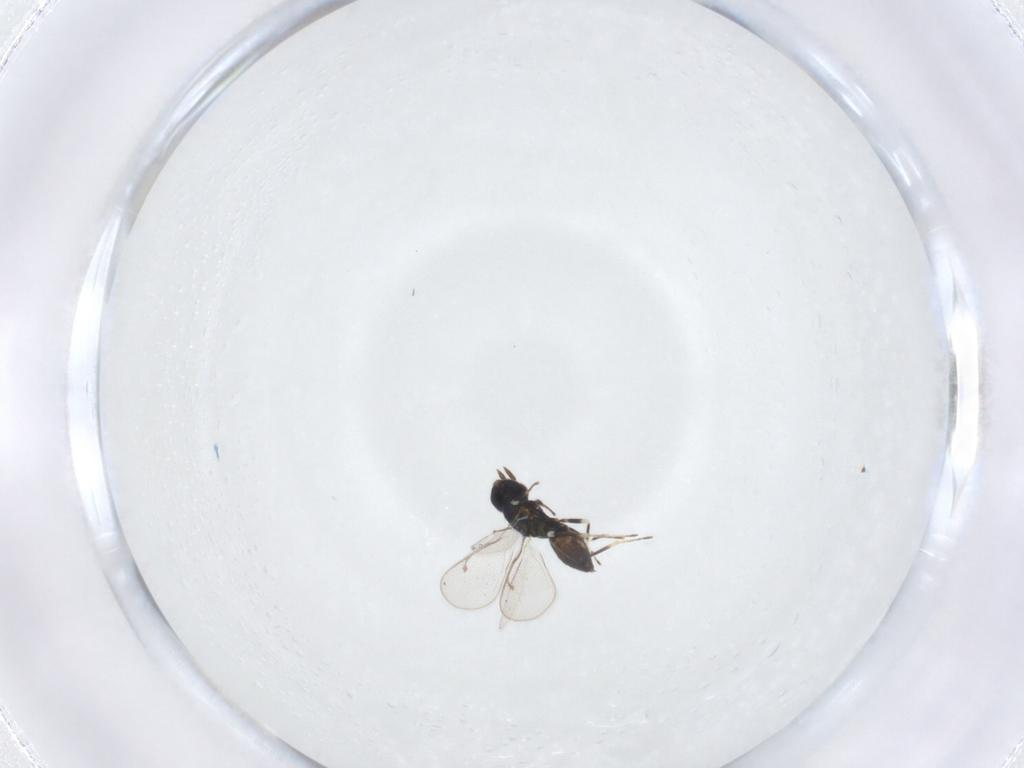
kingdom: Animalia
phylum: Arthropoda
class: Insecta
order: Hymenoptera
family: Eulophidae
